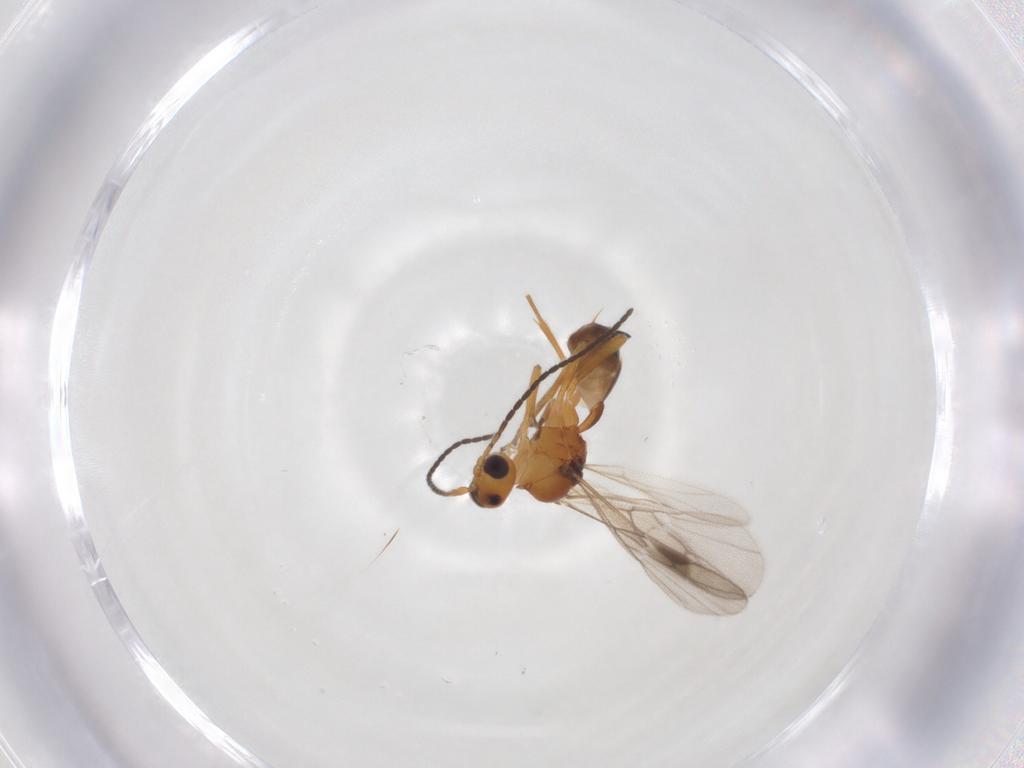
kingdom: Animalia
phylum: Arthropoda
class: Insecta
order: Hymenoptera
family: Braconidae
